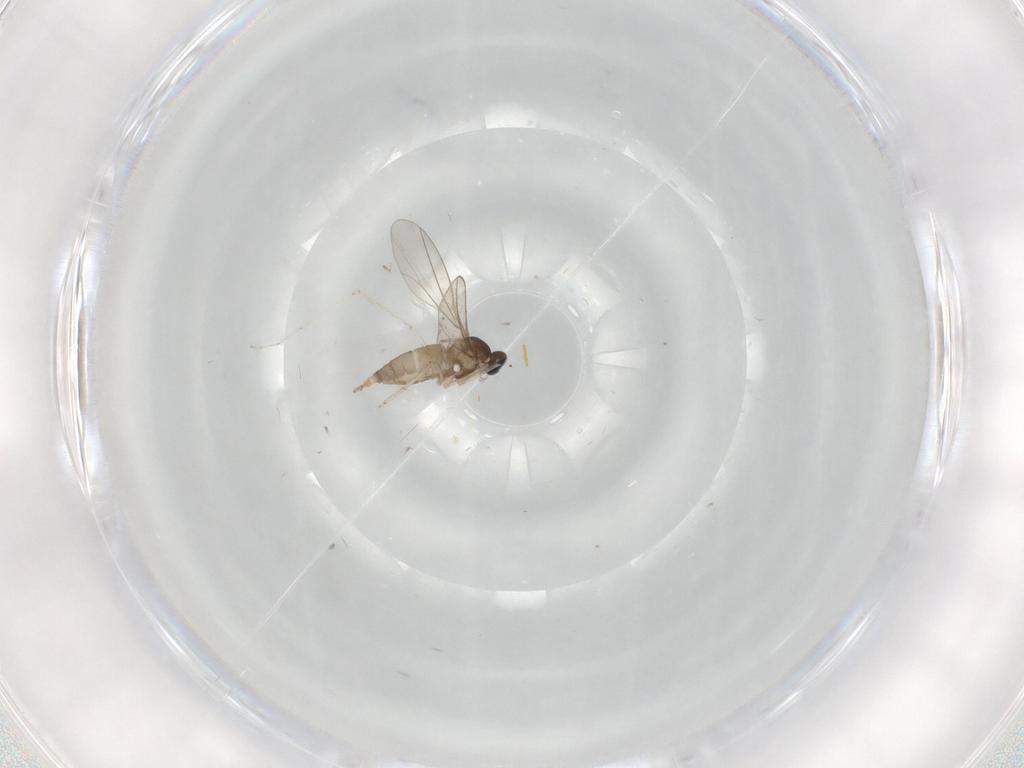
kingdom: Animalia
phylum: Arthropoda
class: Insecta
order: Diptera
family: Chironomidae
